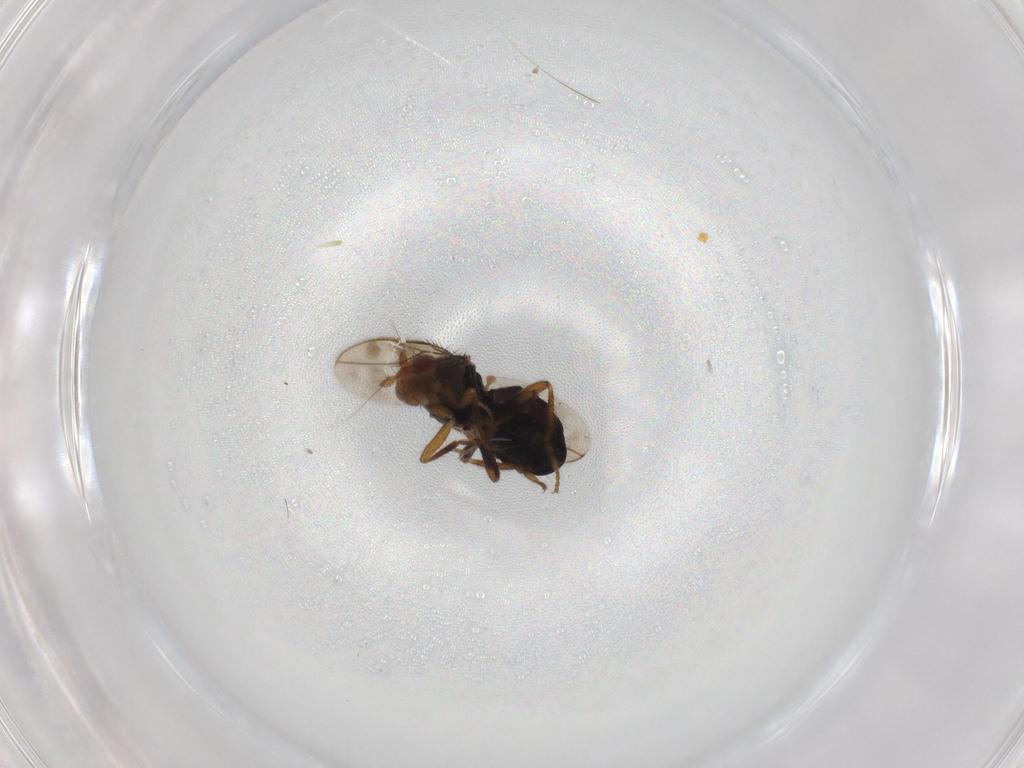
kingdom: Animalia
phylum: Arthropoda
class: Insecta
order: Diptera
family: Sphaeroceridae
